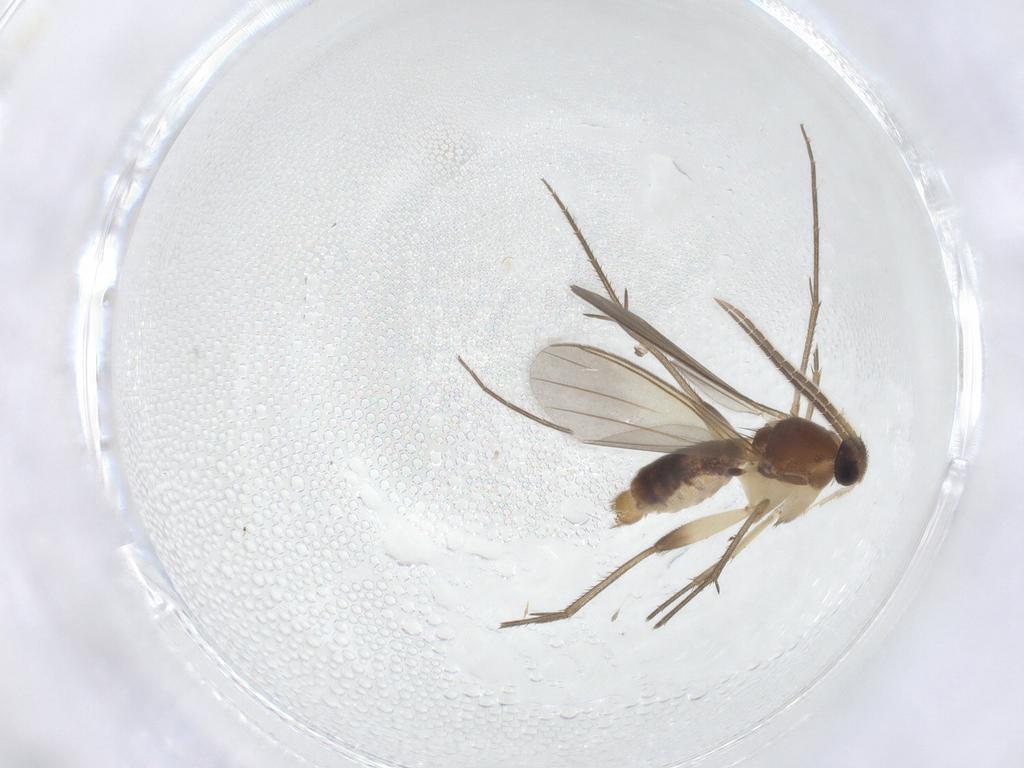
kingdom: Animalia
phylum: Arthropoda
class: Insecta
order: Diptera
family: Mycetophilidae
